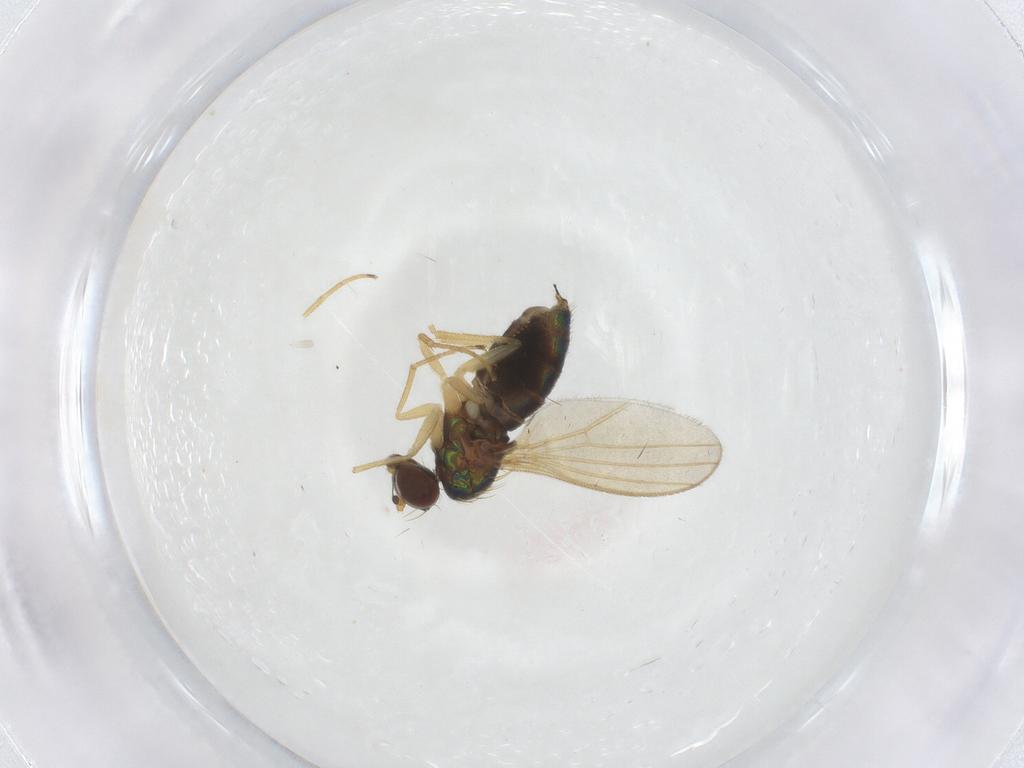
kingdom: Animalia
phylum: Arthropoda
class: Insecta
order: Diptera
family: Dolichopodidae
